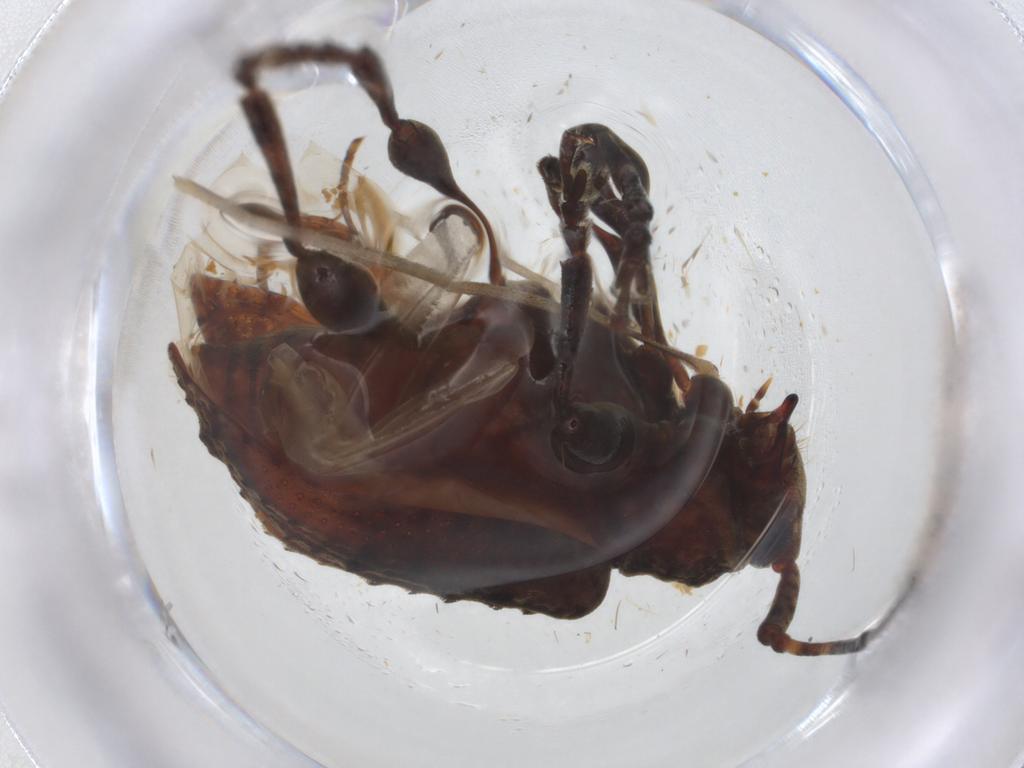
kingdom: Animalia
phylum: Arthropoda
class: Insecta
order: Coleoptera
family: Cerambycidae
